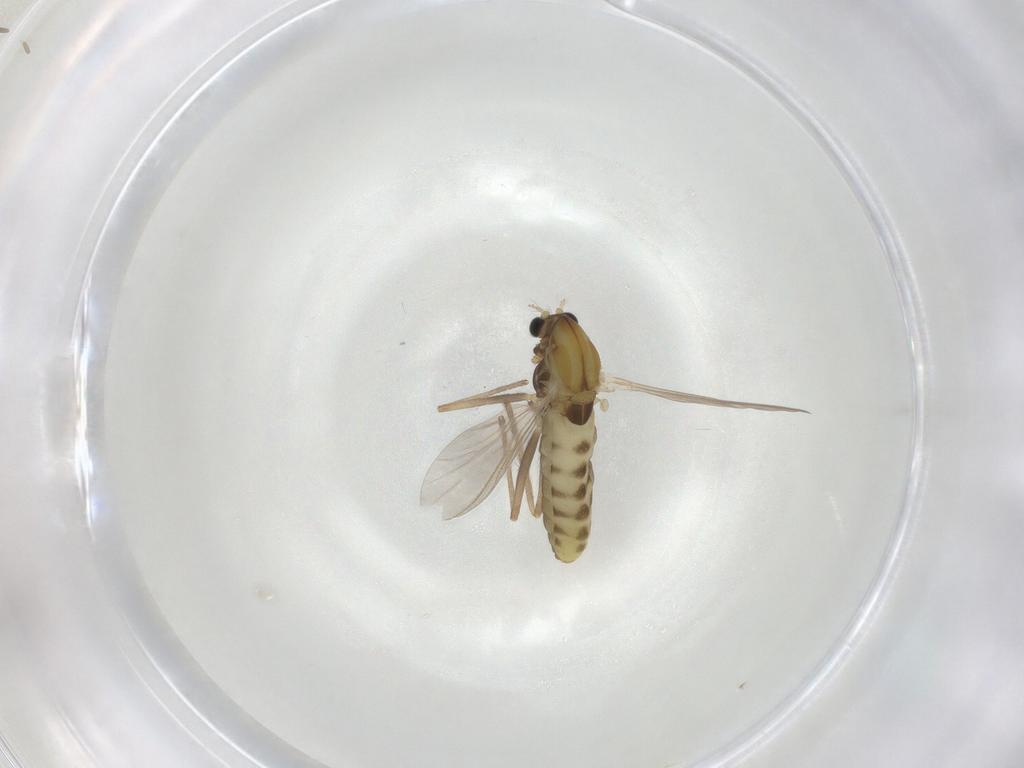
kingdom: Animalia
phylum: Arthropoda
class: Insecta
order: Diptera
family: Chironomidae
